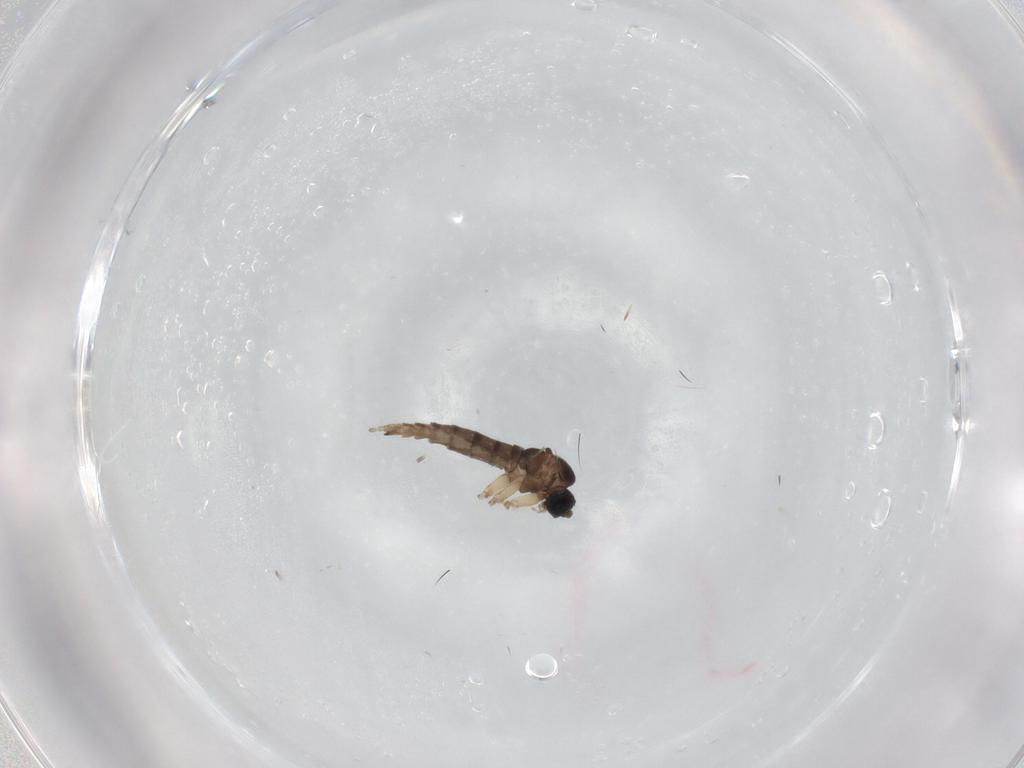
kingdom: Animalia
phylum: Arthropoda
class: Insecta
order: Diptera
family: Sciaridae
